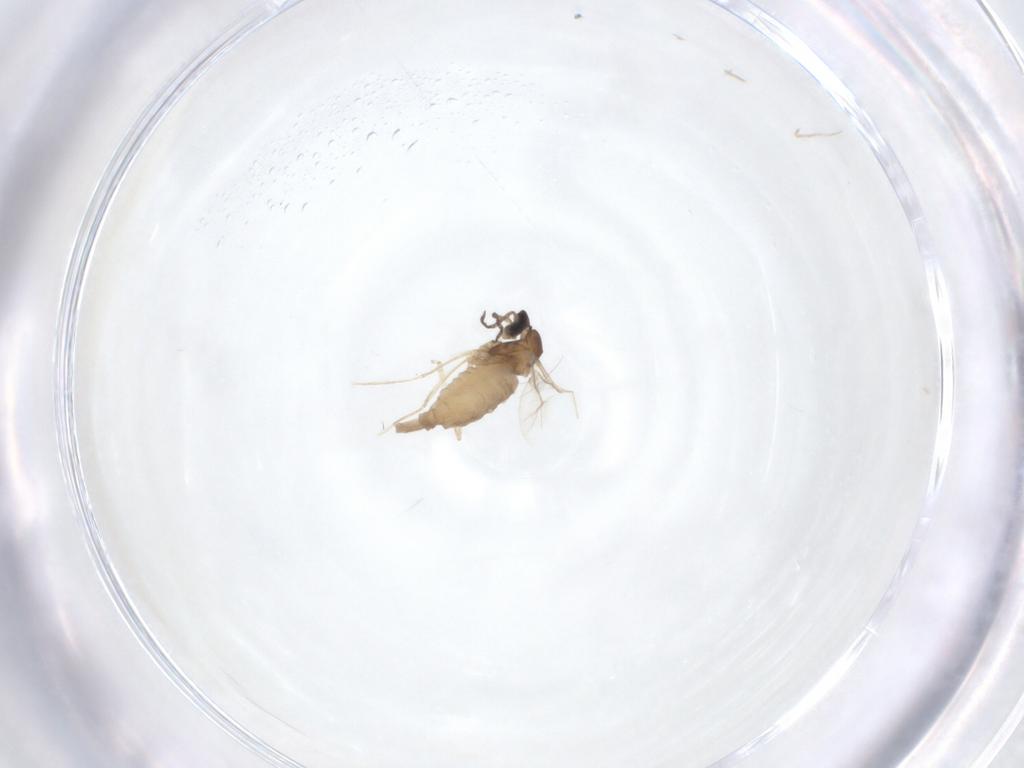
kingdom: Animalia
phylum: Arthropoda
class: Insecta
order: Diptera
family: Cecidomyiidae
